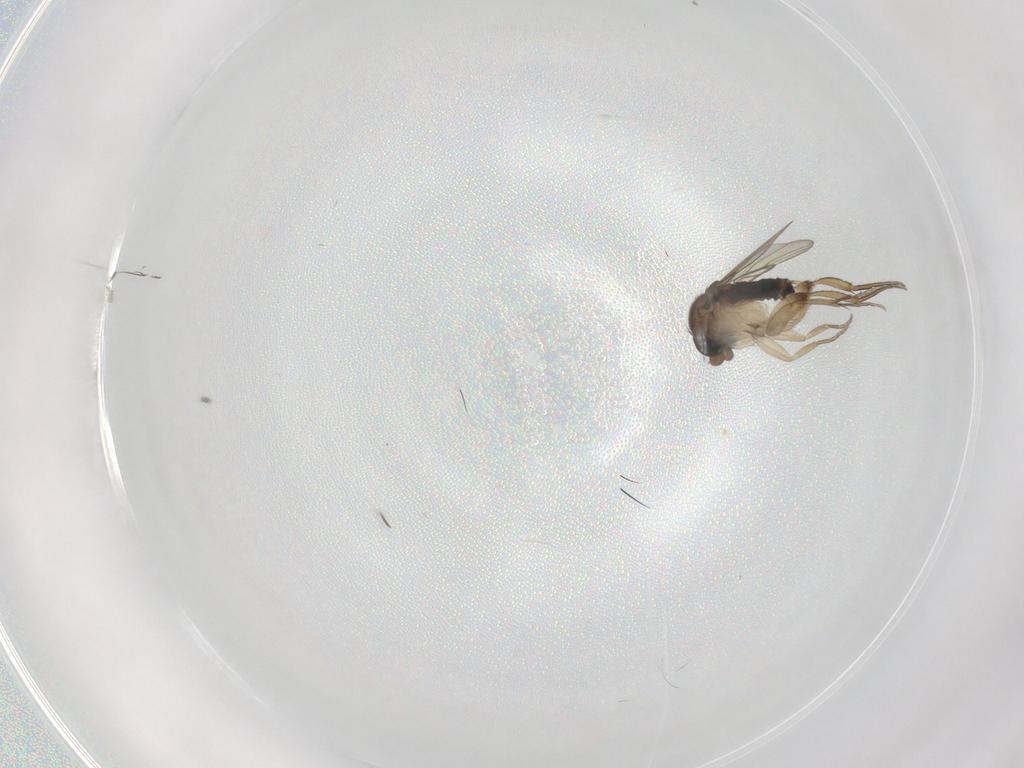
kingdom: Animalia
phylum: Arthropoda
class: Insecta
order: Diptera
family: Phoridae
